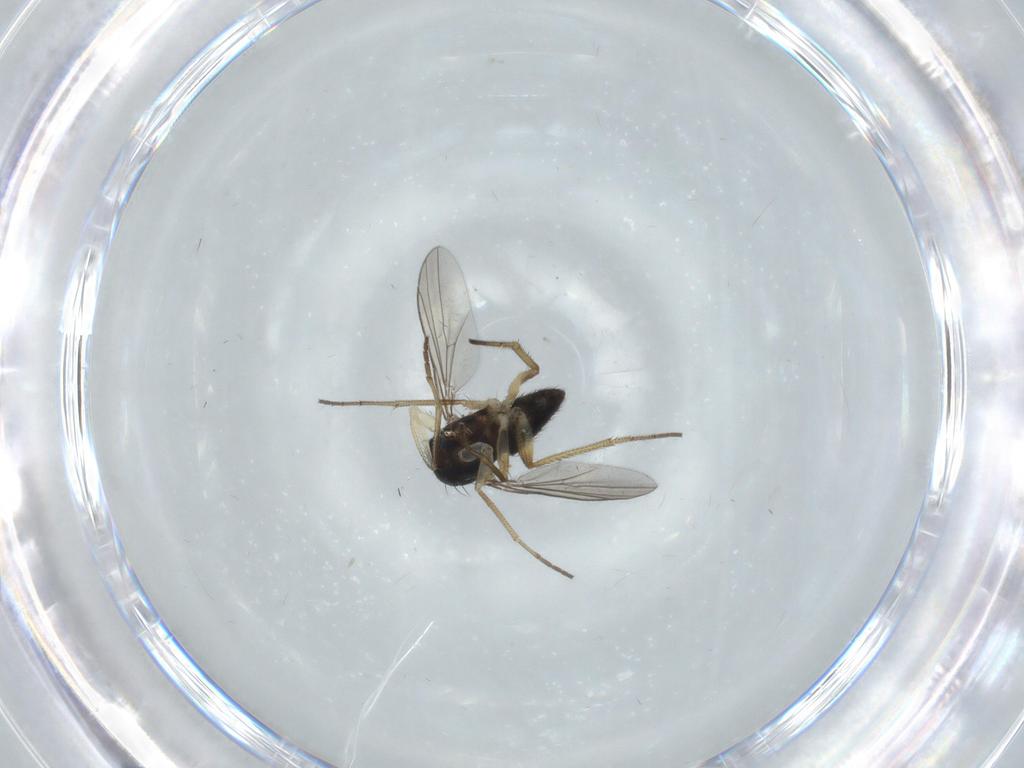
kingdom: Animalia
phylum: Arthropoda
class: Insecta
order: Diptera
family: Dolichopodidae
